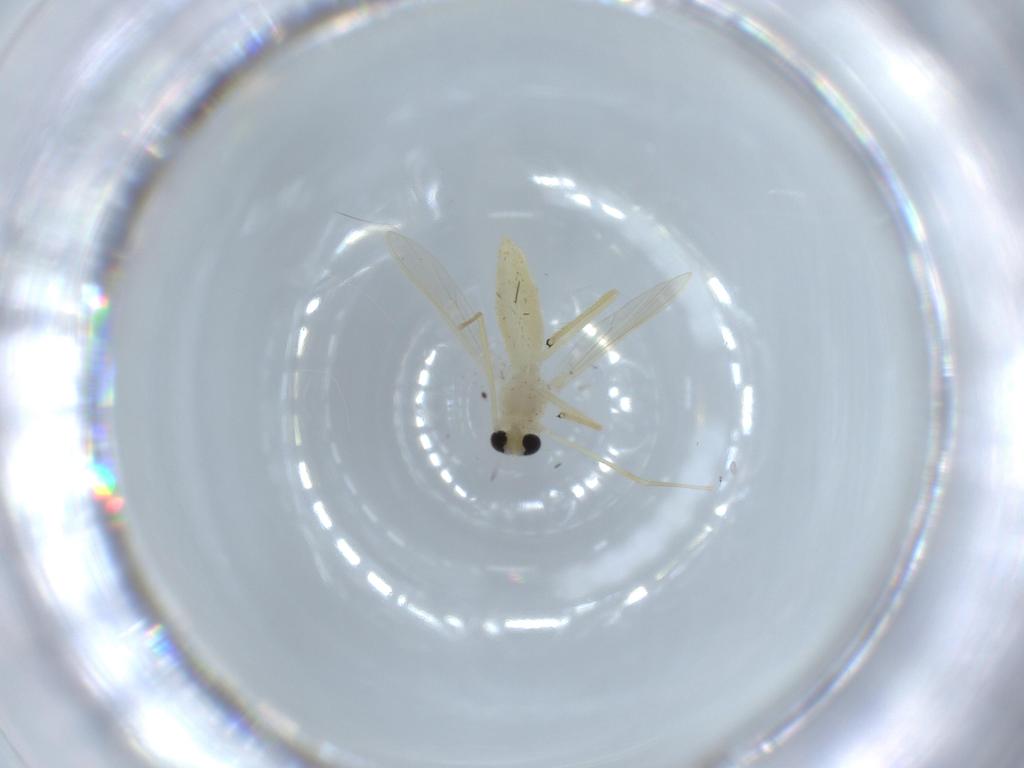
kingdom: Animalia
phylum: Arthropoda
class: Insecta
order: Diptera
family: Chironomidae
